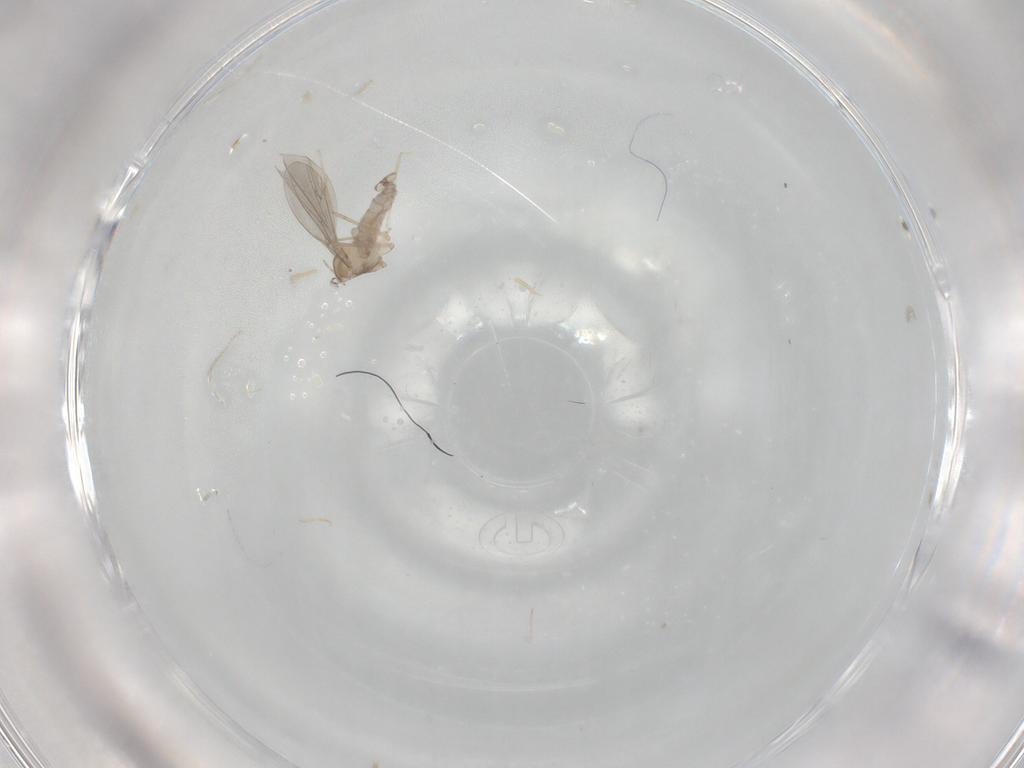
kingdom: Animalia
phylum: Arthropoda
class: Insecta
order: Diptera
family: Cecidomyiidae
